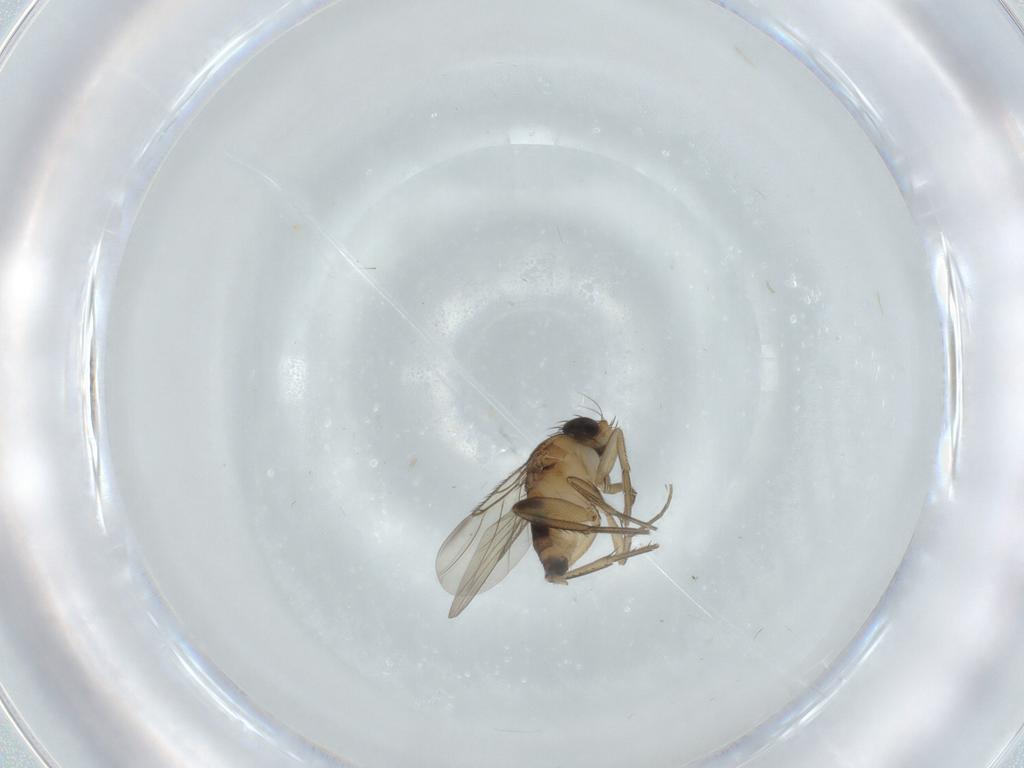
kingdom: Animalia
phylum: Arthropoda
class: Insecta
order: Diptera
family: Phoridae
